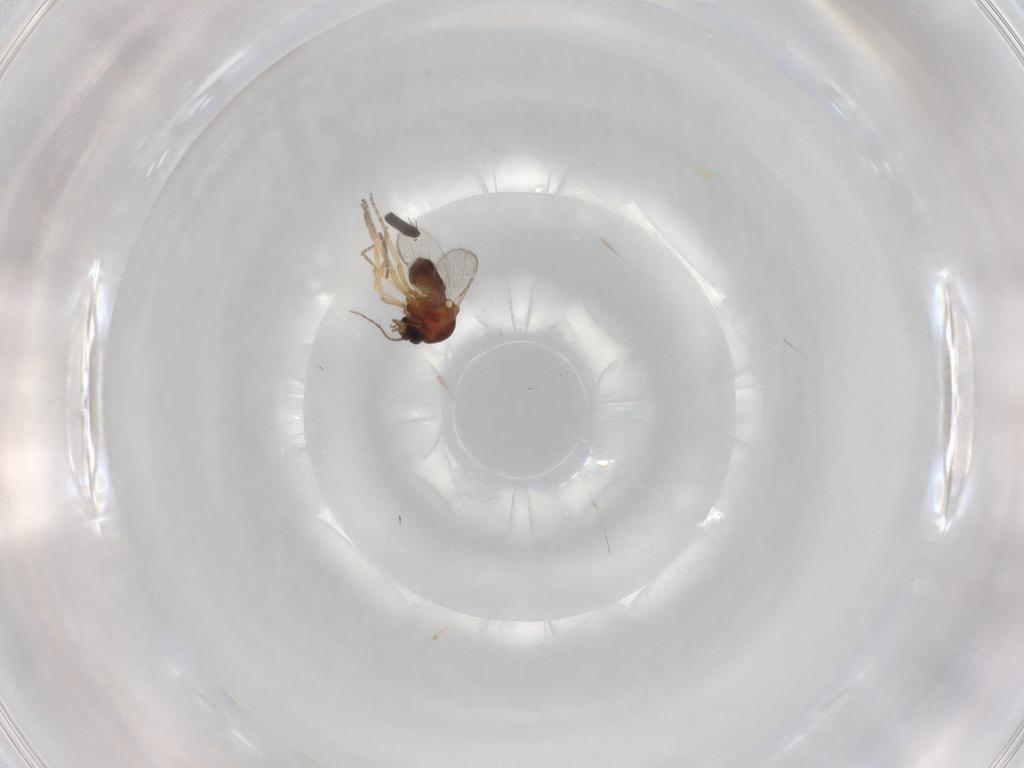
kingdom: Animalia
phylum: Arthropoda
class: Insecta
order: Diptera
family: Limoniidae
